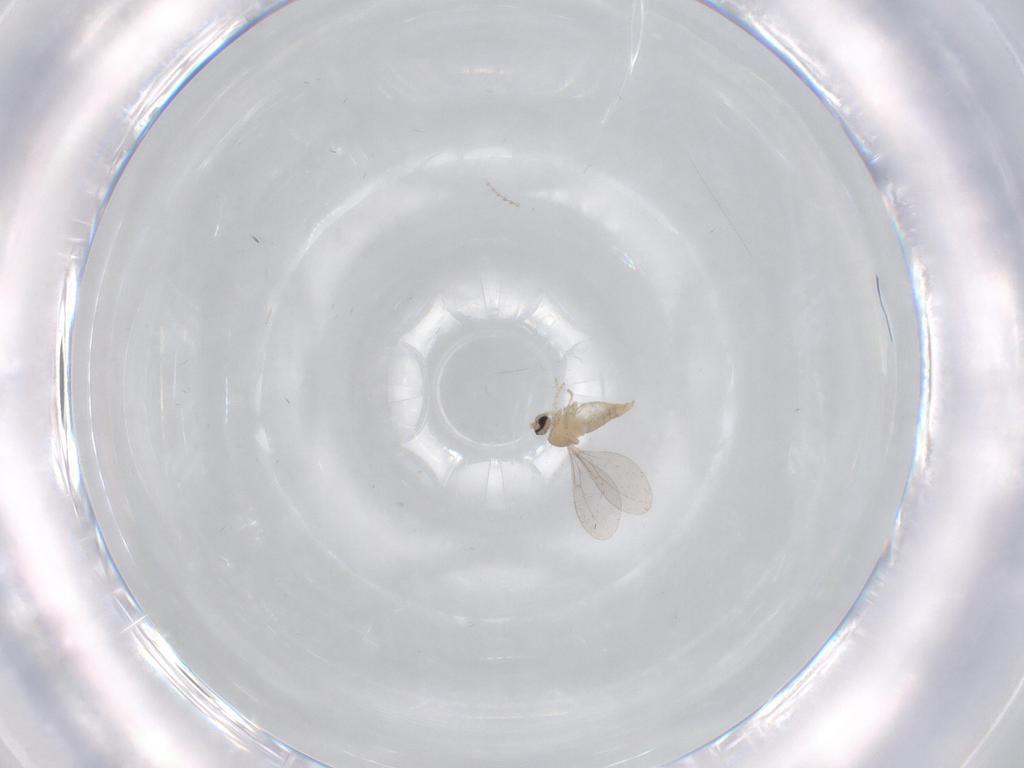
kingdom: Animalia
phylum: Arthropoda
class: Insecta
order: Diptera
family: Cecidomyiidae
